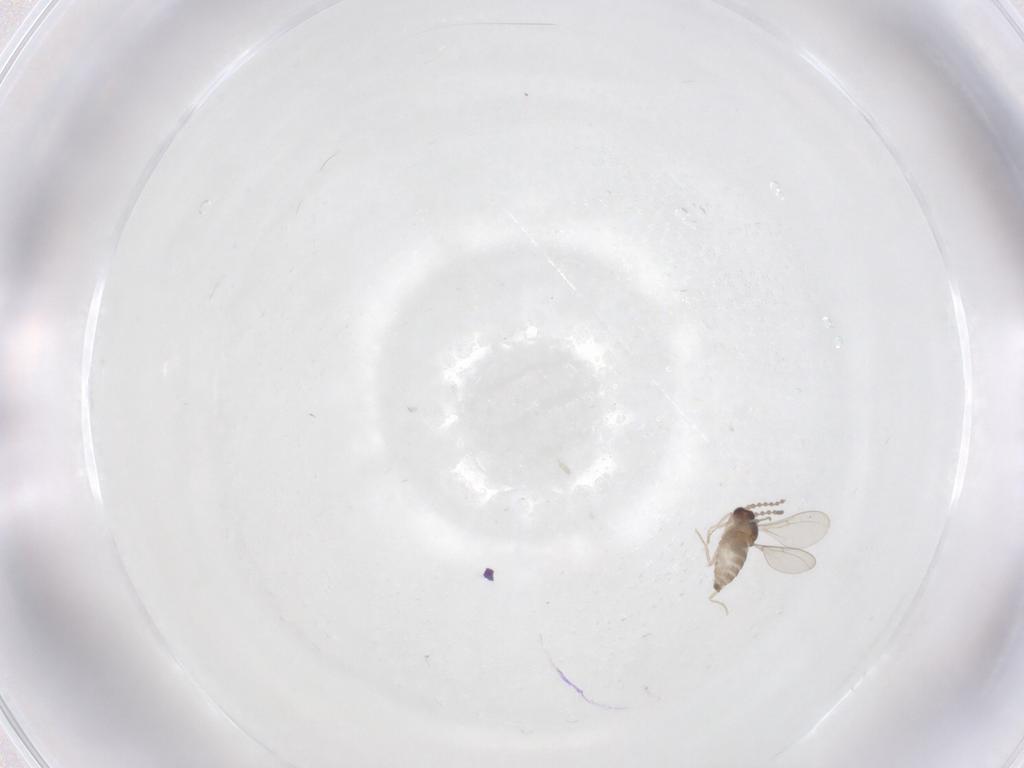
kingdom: Animalia
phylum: Arthropoda
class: Insecta
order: Diptera
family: Cecidomyiidae
